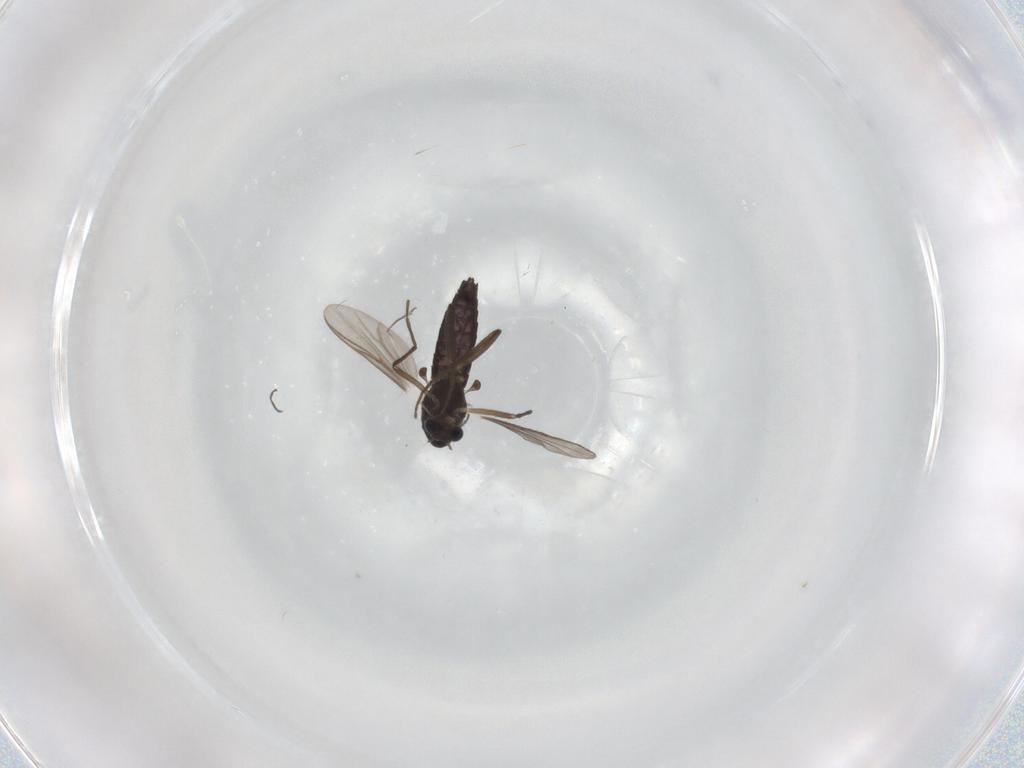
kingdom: Animalia
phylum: Arthropoda
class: Insecta
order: Diptera
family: Chironomidae
